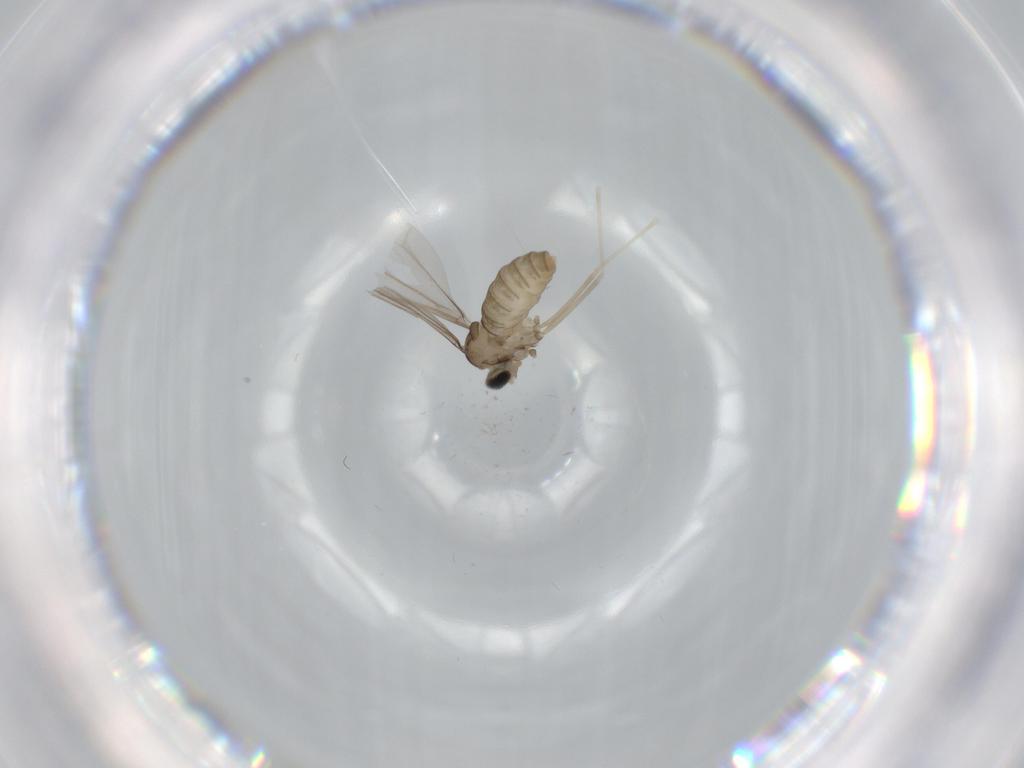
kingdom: Animalia
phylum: Arthropoda
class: Insecta
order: Diptera
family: Cecidomyiidae
